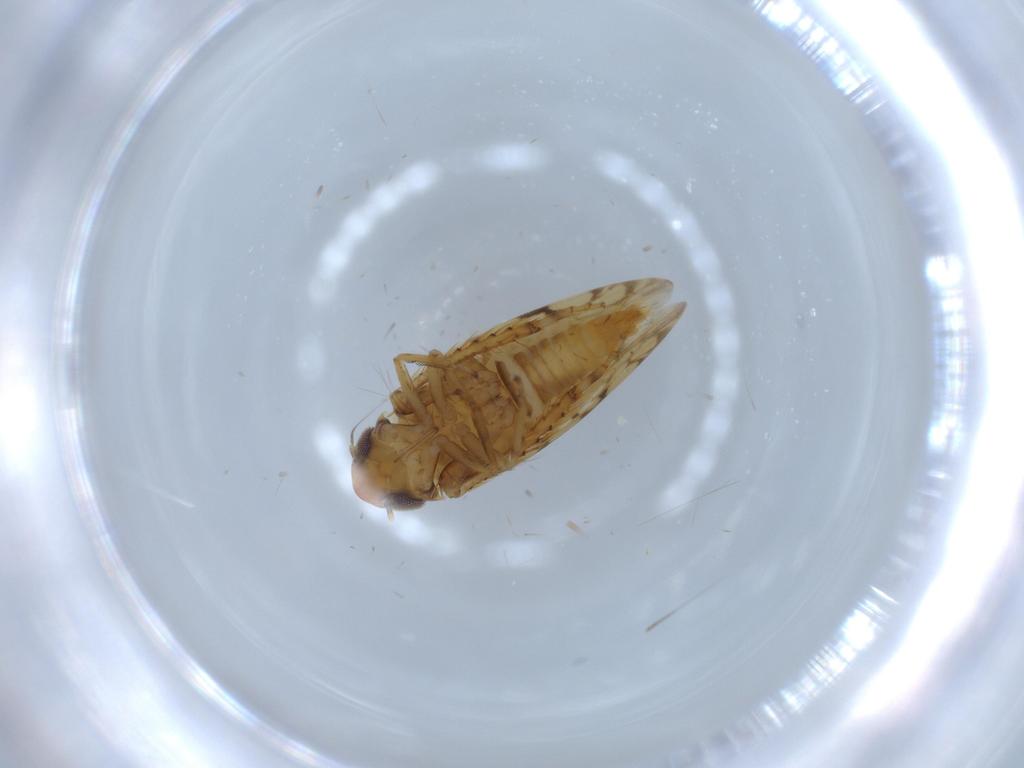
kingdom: Animalia
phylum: Arthropoda
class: Insecta
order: Hemiptera
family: Cicadellidae
